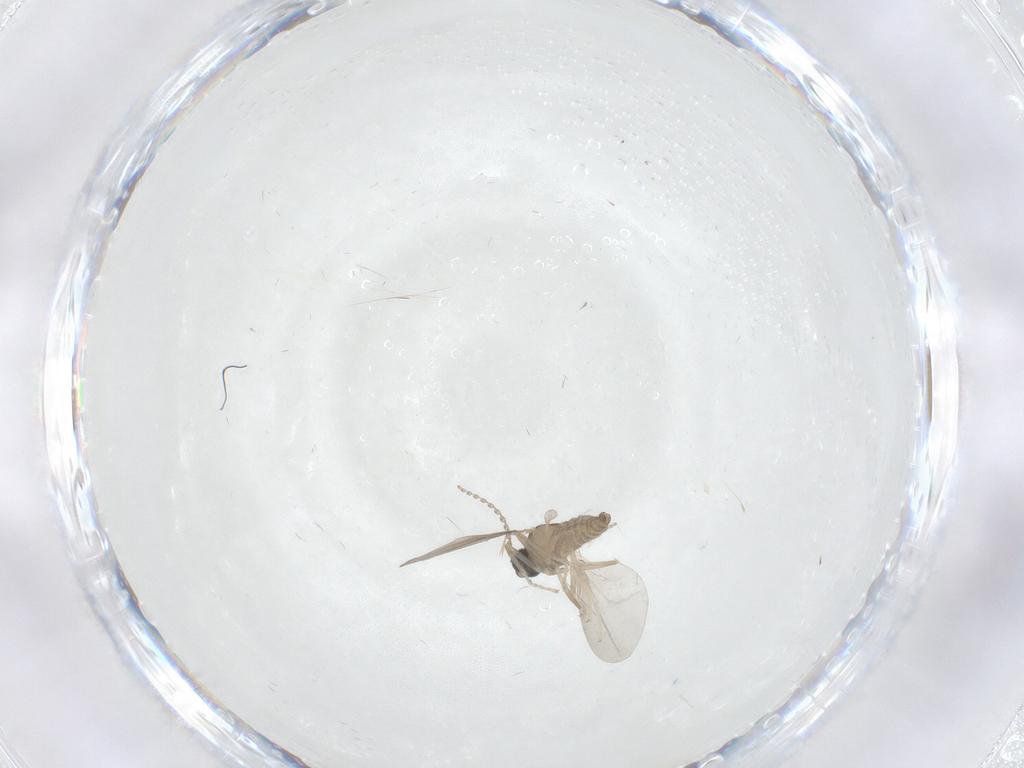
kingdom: Animalia
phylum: Arthropoda
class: Insecta
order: Diptera
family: Cecidomyiidae
